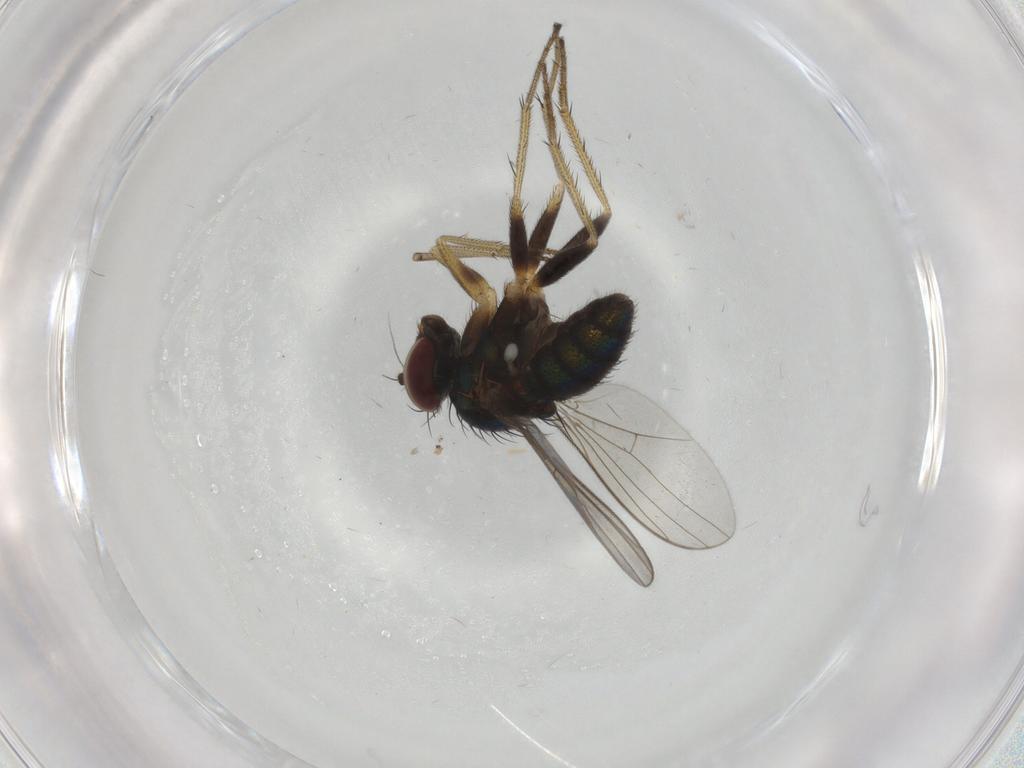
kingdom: Animalia
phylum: Arthropoda
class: Insecta
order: Diptera
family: Dolichopodidae
